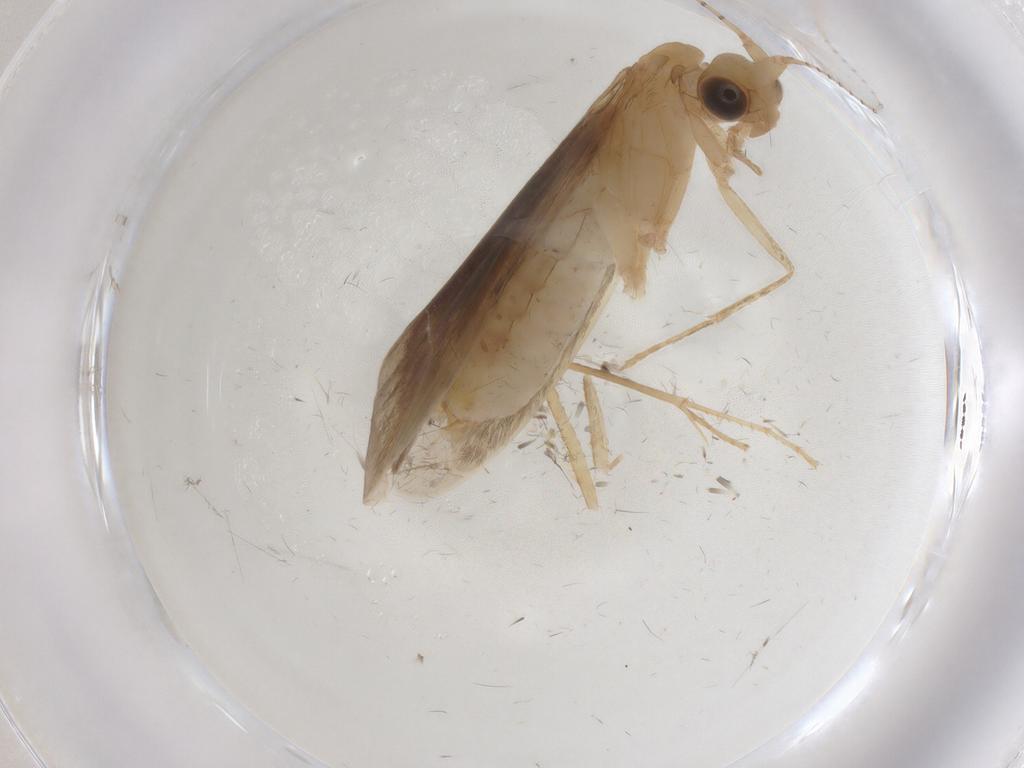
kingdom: Animalia
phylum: Arthropoda
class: Insecta
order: Trichoptera
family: Leptoceridae
